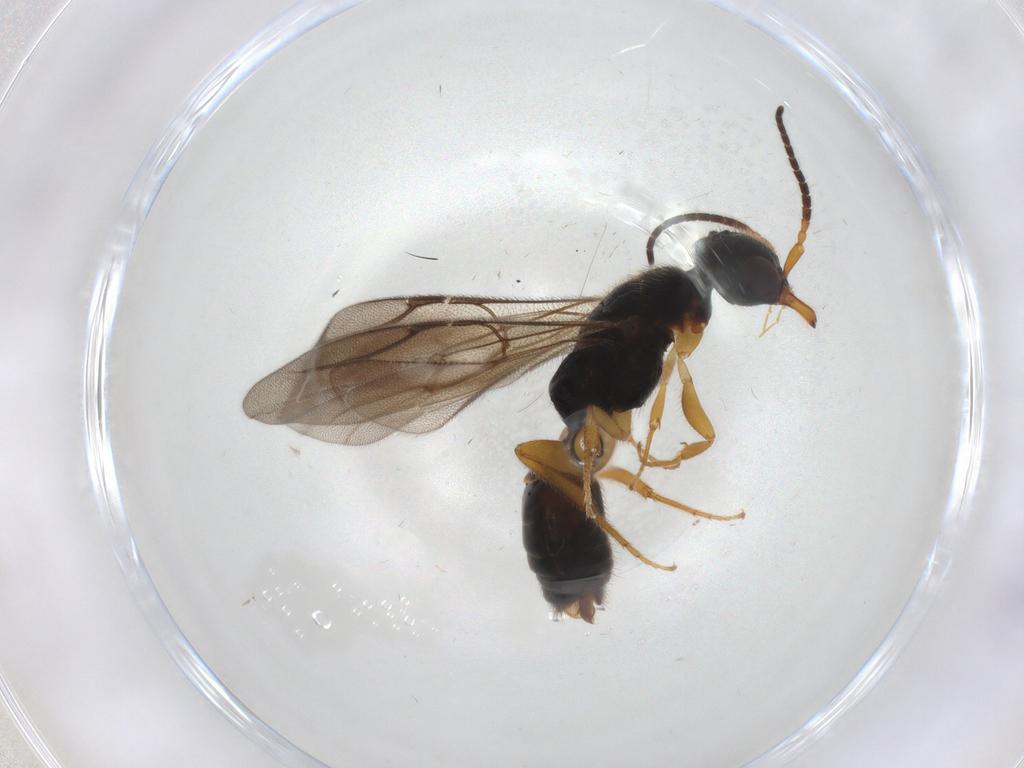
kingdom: Animalia
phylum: Arthropoda
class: Insecta
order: Hymenoptera
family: Bethylidae
